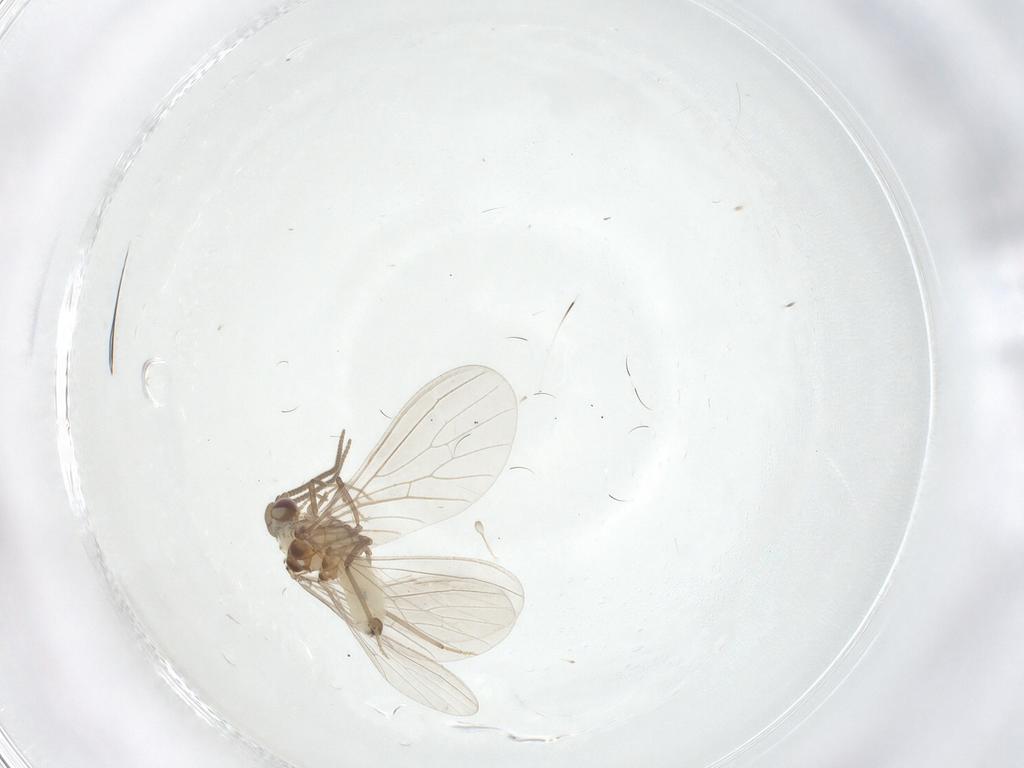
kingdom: Animalia
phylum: Arthropoda
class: Insecta
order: Neuroptera
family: Coniopterygidae
